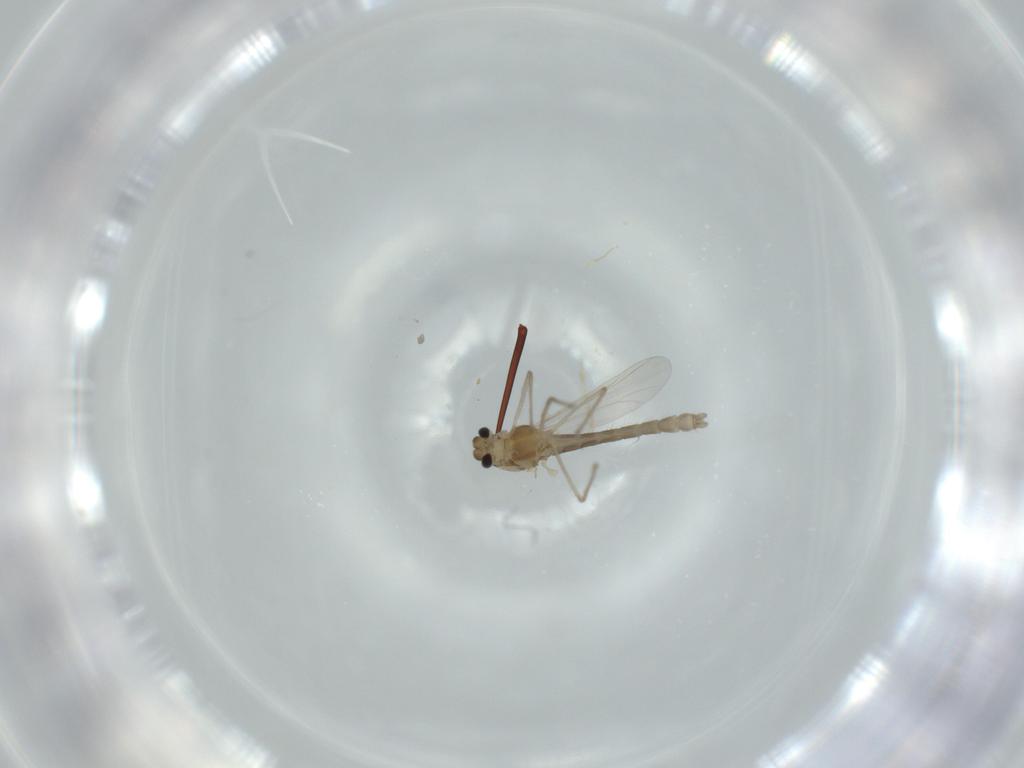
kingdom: Animalia
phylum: Arthropoda
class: Insecta
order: Diptera
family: Chironomidae
